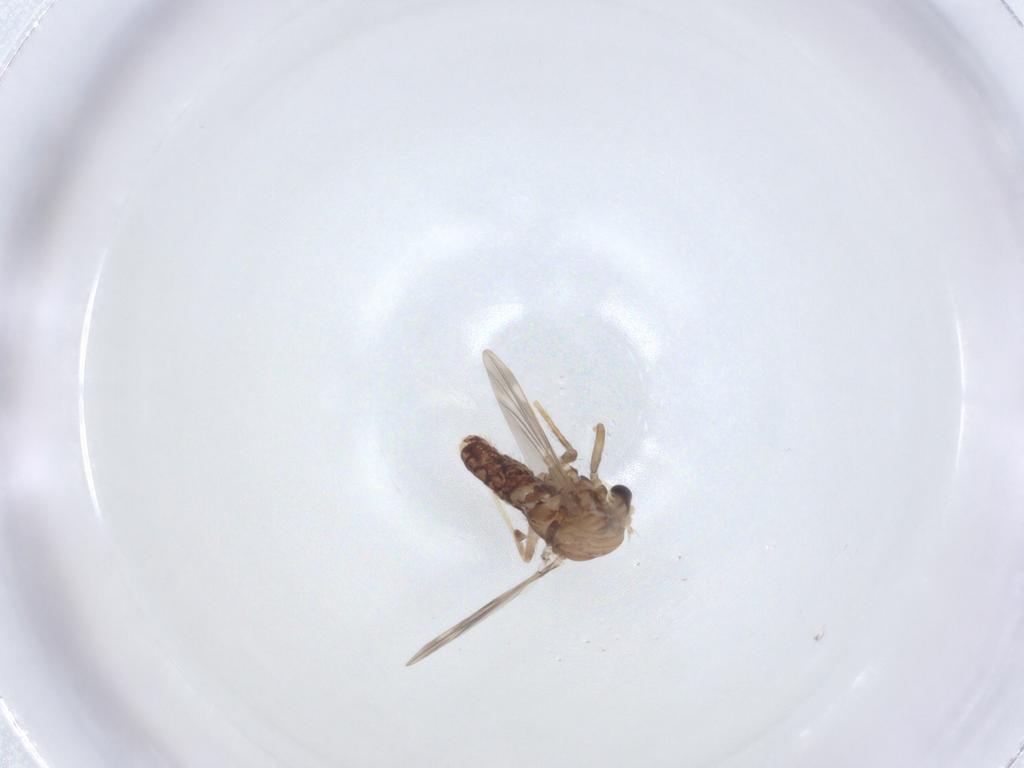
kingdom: Animalia
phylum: Arthropoda
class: Insecta
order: Diptera
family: Chironomidae
